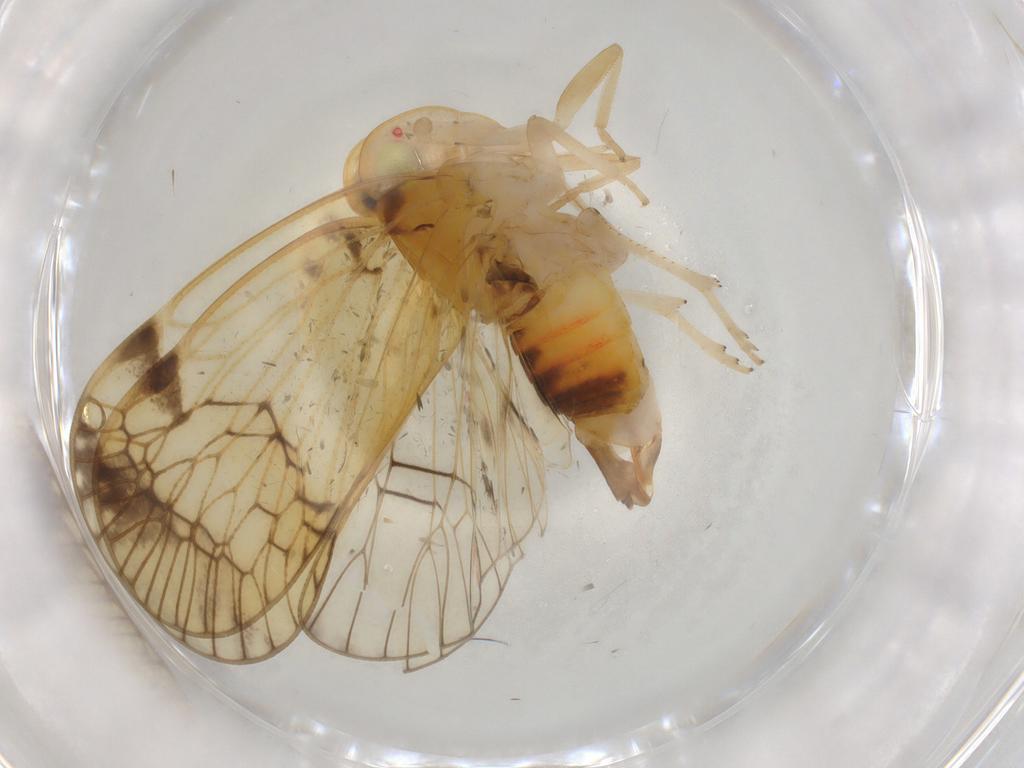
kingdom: Animalia
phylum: Arthropoda
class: Insecta
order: Hemiptera
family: Cixiidae
